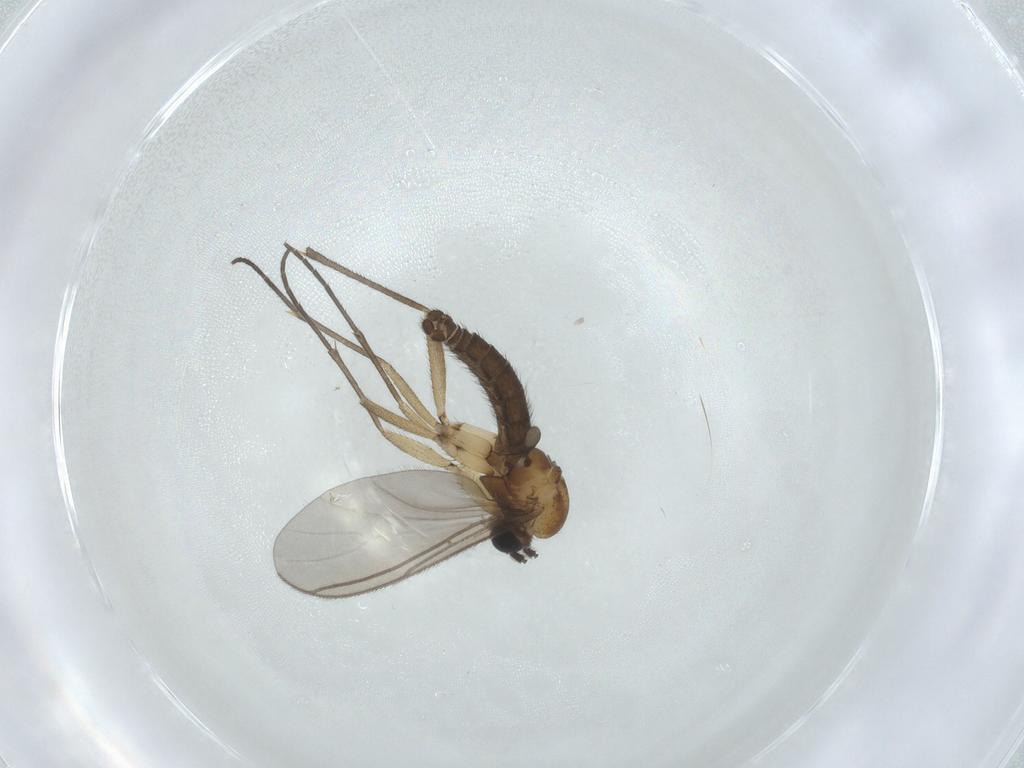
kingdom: Animalia
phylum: Arthropoda
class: Insecta
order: Diptera
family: Sciaridae
